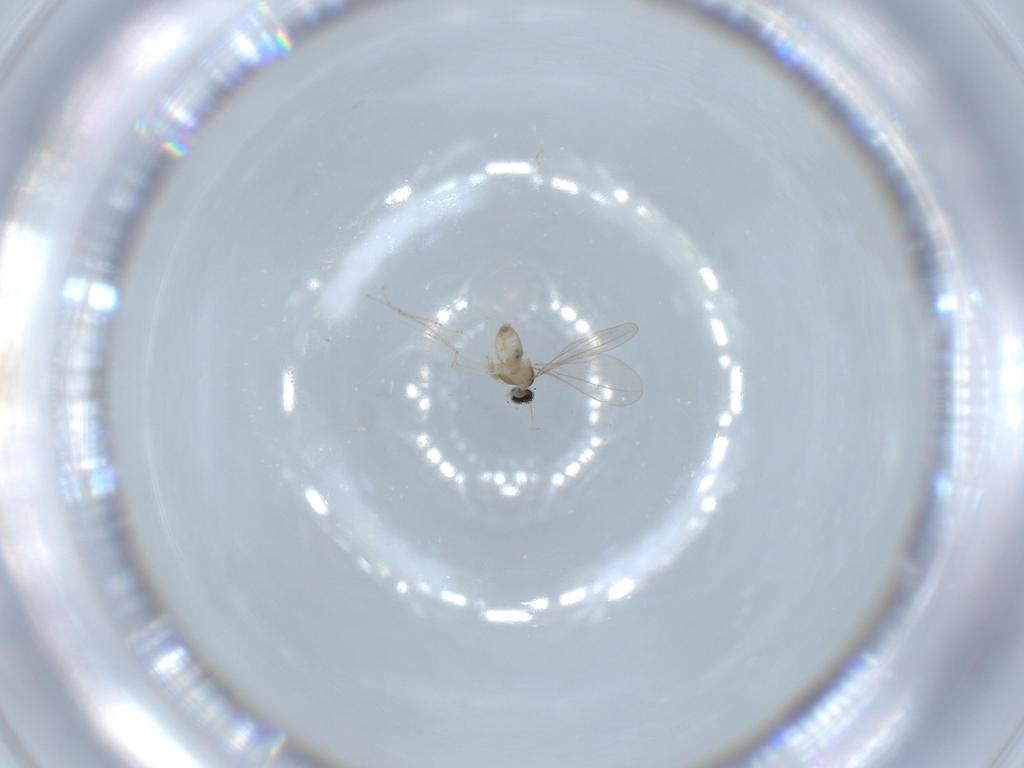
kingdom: Animalia
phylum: Arthropoda
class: Insecta
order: Diptera
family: Cecidomyiidae
